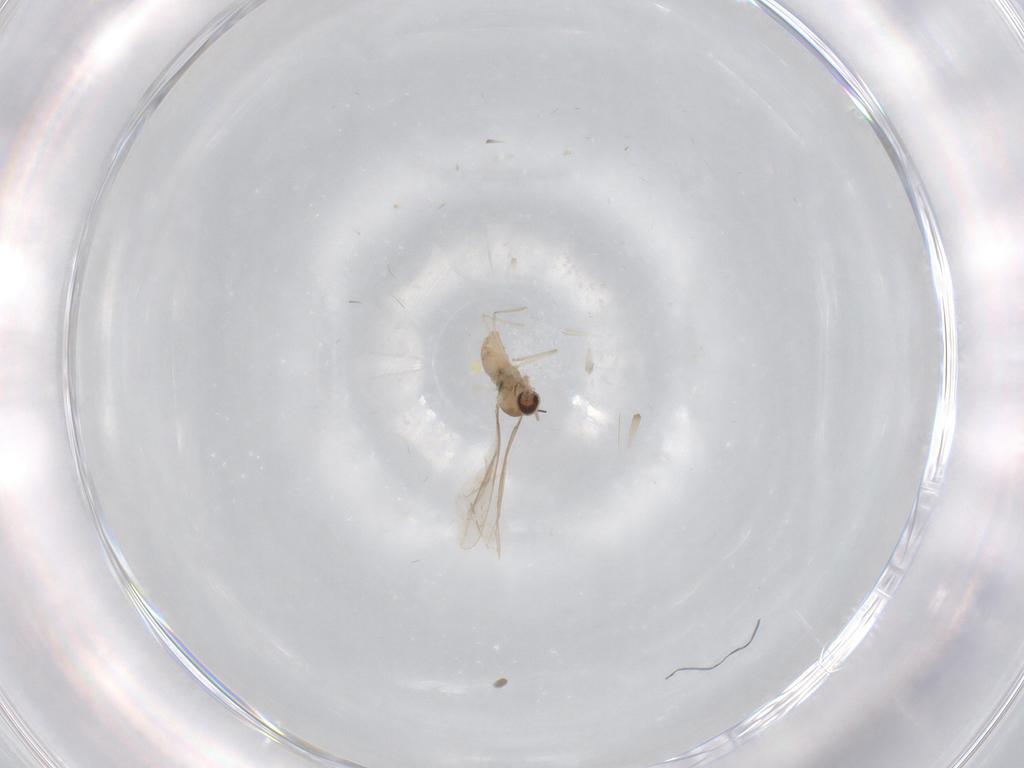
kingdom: Animalia
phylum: Arthropoda
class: Insecta
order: Diptera
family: Cecidomyiidae
